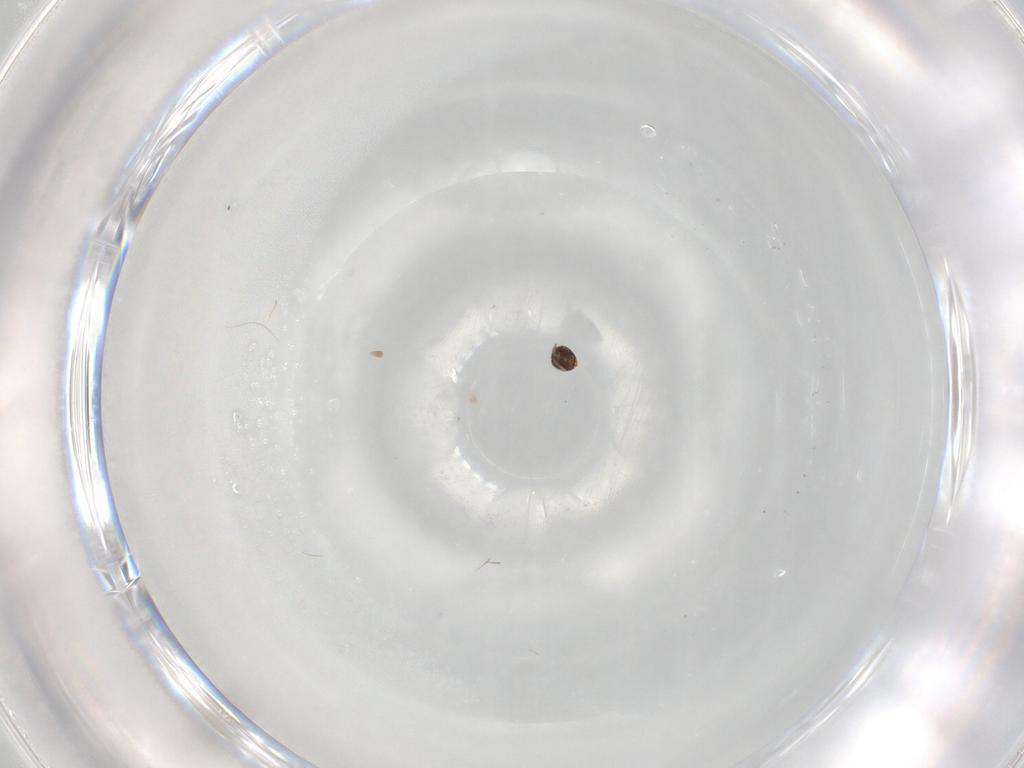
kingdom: Animalia
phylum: Arthropoda
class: Insecta
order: Hymenoptera
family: Aphelinidae
